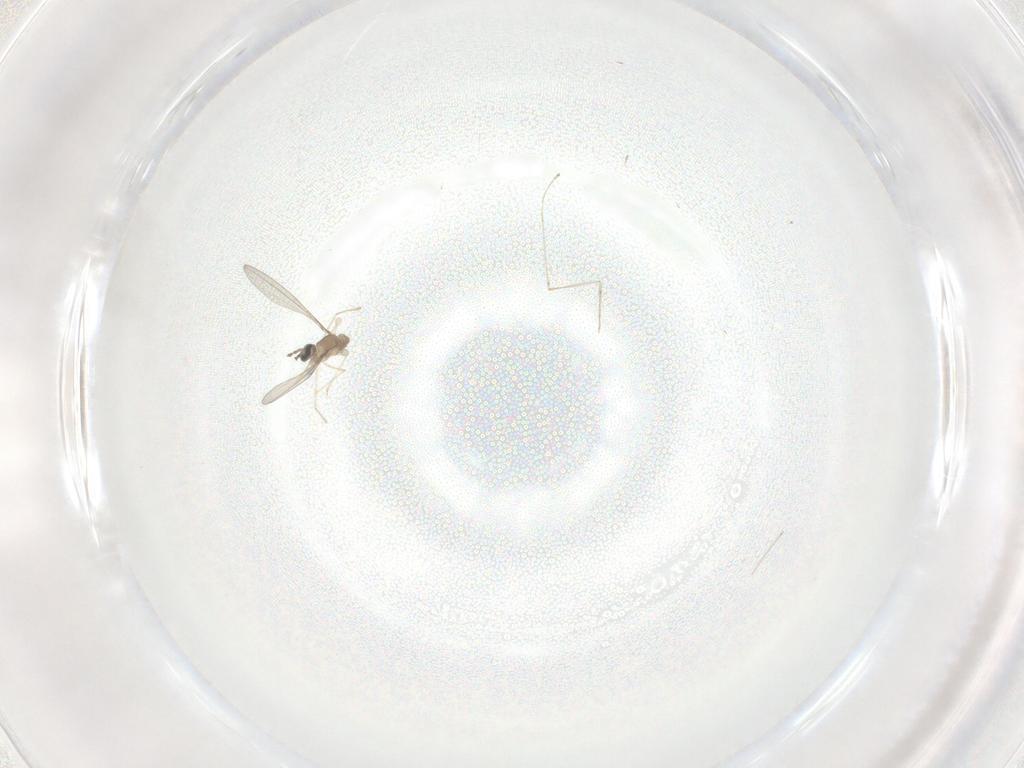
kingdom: Animalia
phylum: Arthropoda
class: Insecta
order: Diptera
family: Cecidomyiidae
